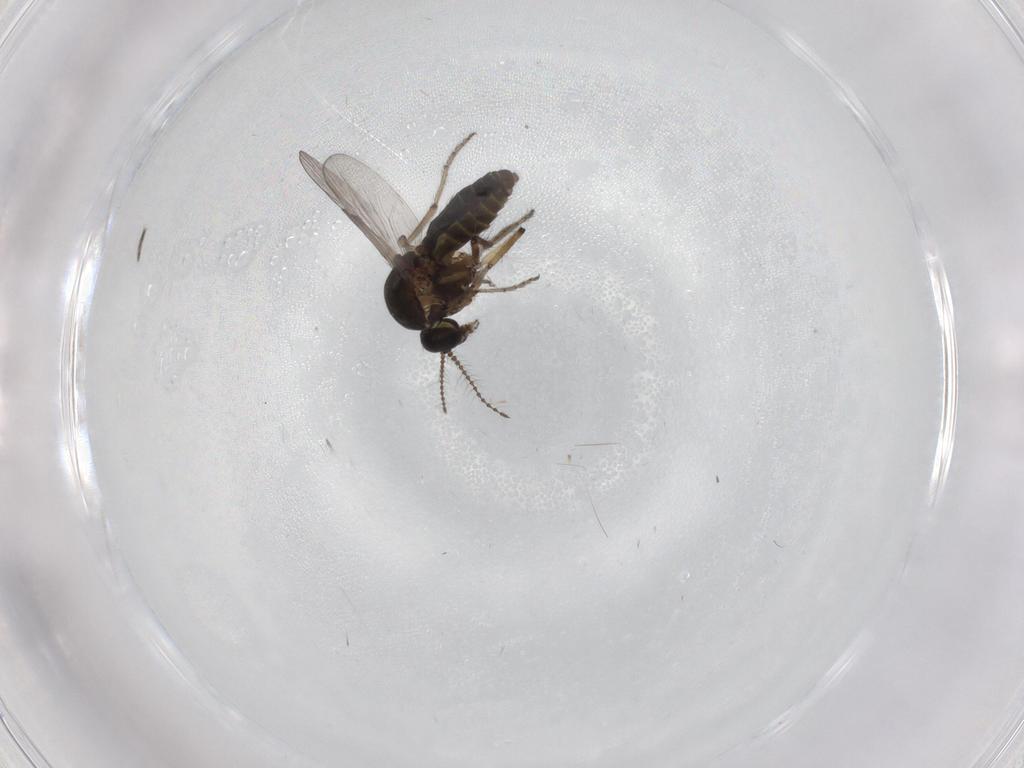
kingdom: Animalia
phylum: Arthropoda
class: Insecta
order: Diptera
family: Ceratopogonidae
